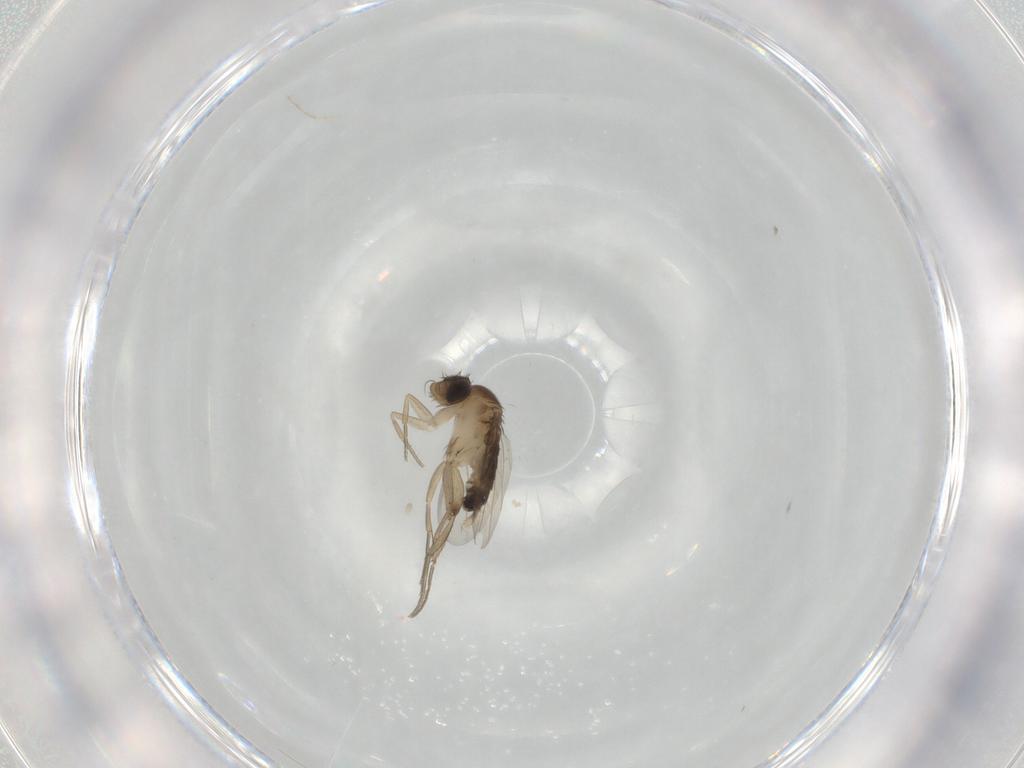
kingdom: Animalia
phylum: Arthropoda
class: Insecta
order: Diptera
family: Phoridae
